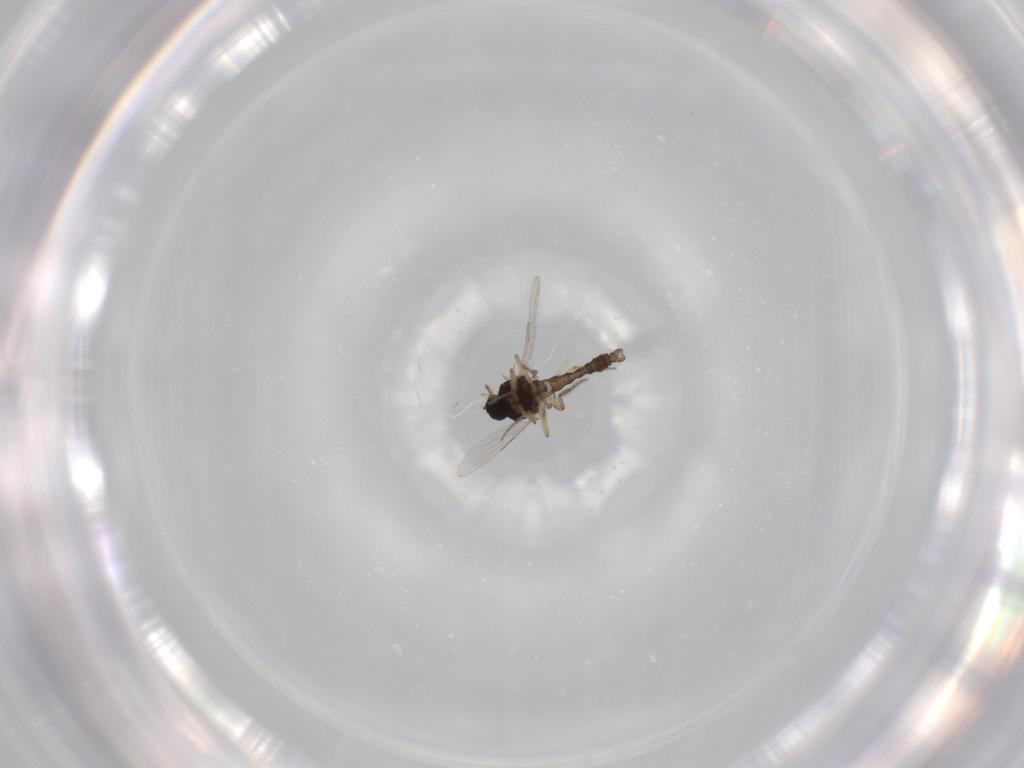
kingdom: Animalia
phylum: Arthropoda
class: Insecta
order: Diptera
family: Ceratopogonidae
